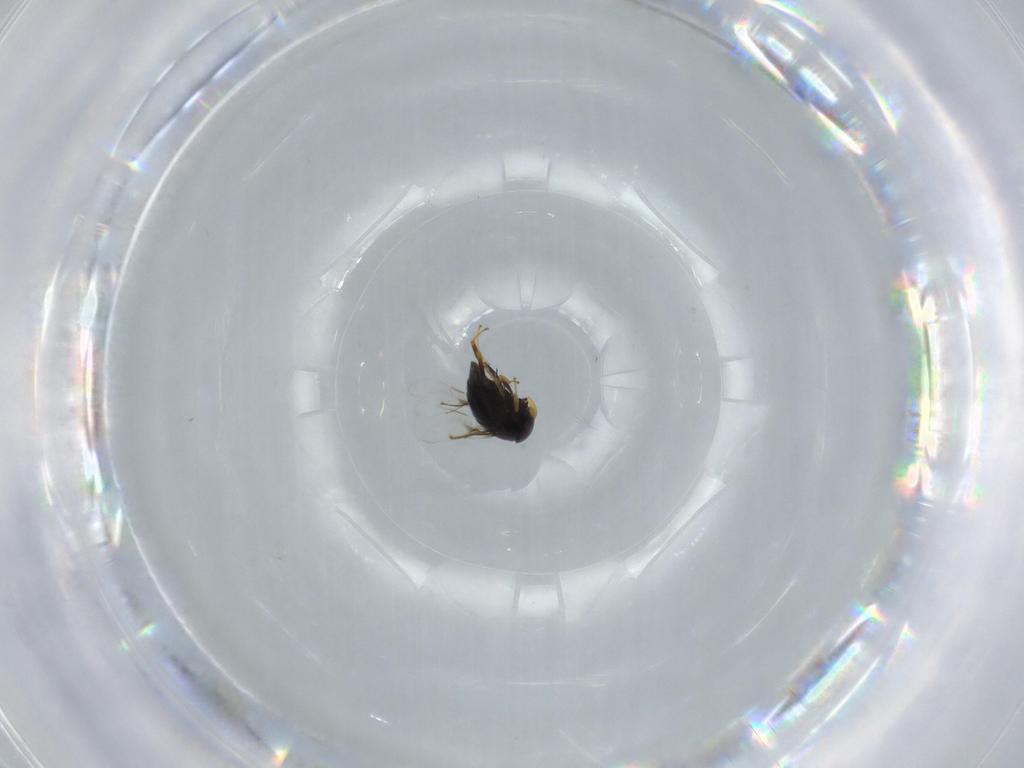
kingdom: Animalia
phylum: Arthropoda
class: Insecta
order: Hymenoptera
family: Signiphoridae
